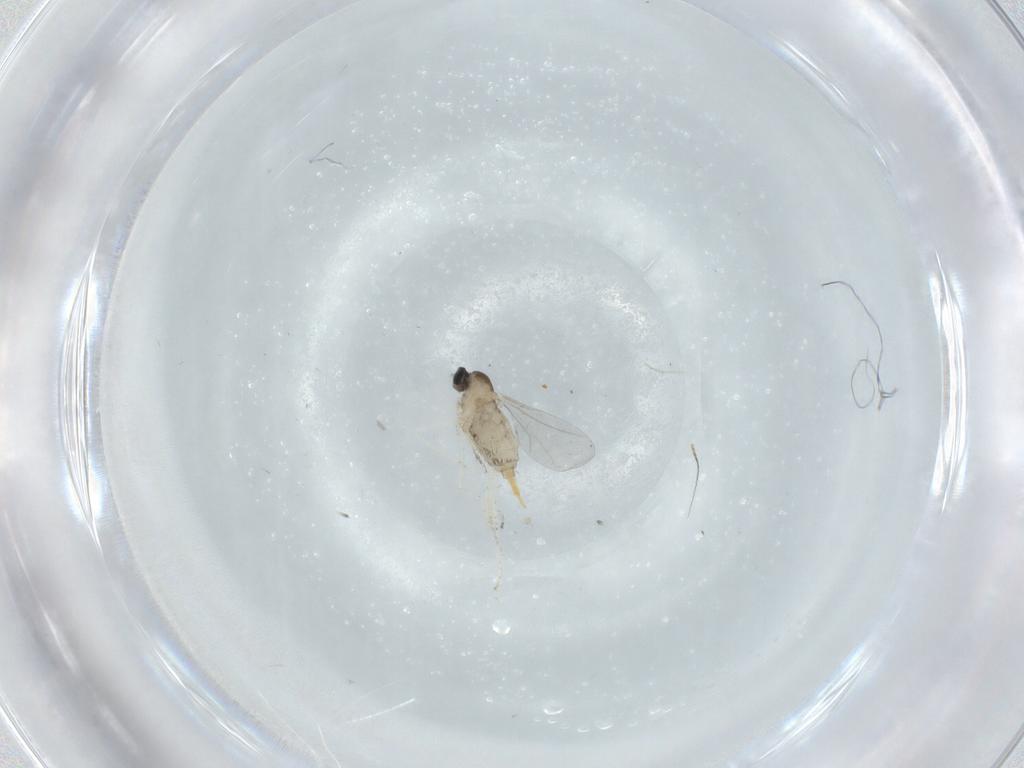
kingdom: Animalia
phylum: Arthropoda
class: Insecta
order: Diptera
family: Cecidomyiidae
